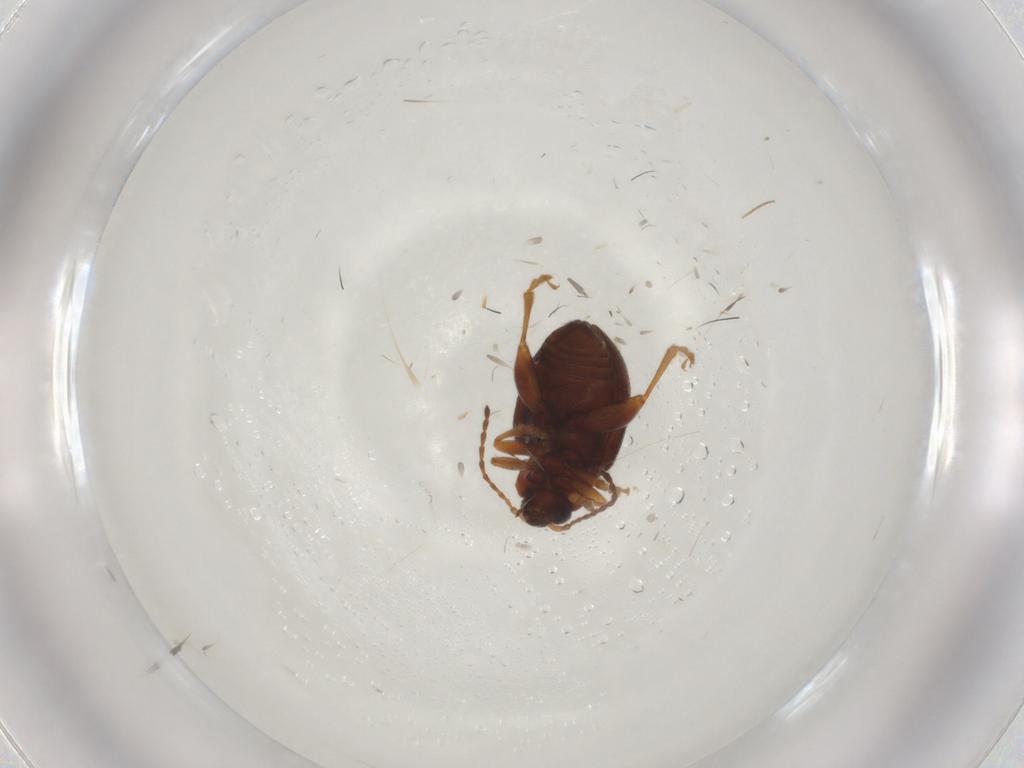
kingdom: Animalia
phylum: Arthropoda
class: Insecta
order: Coleoptera
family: Chrysomelidae
